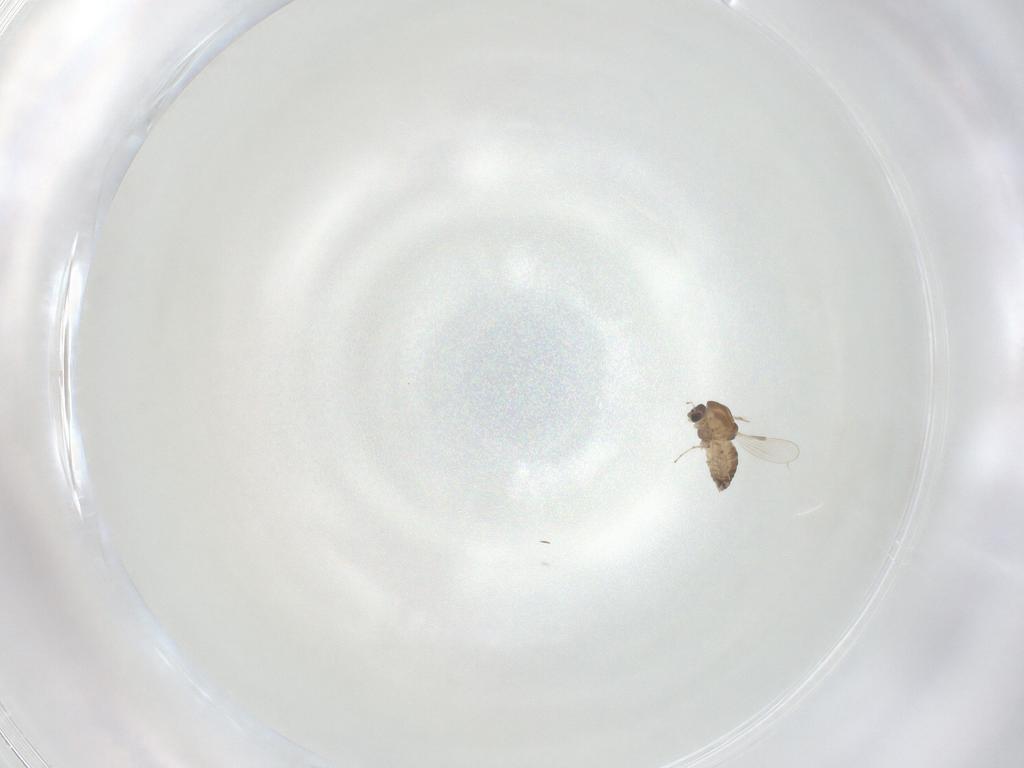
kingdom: Animalia
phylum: Arthropoda
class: Insecta
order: Diptera
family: Chironomidae
